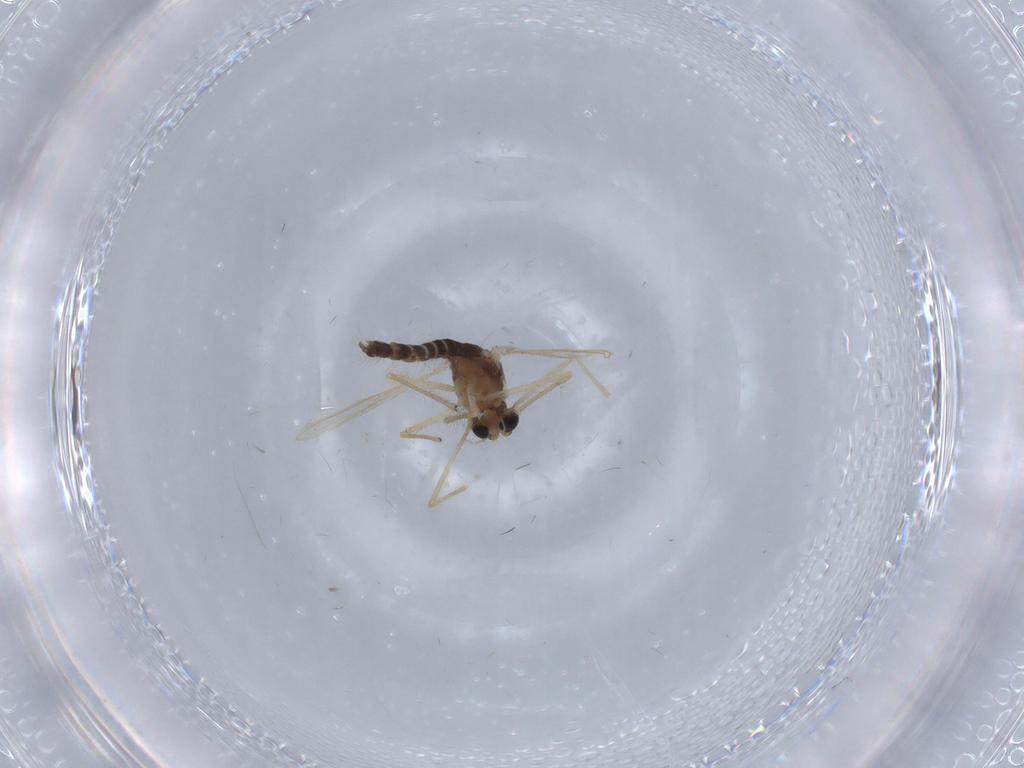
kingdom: Animalia
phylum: Arthropoda
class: Insecta
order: Diptera
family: Chironomidae
